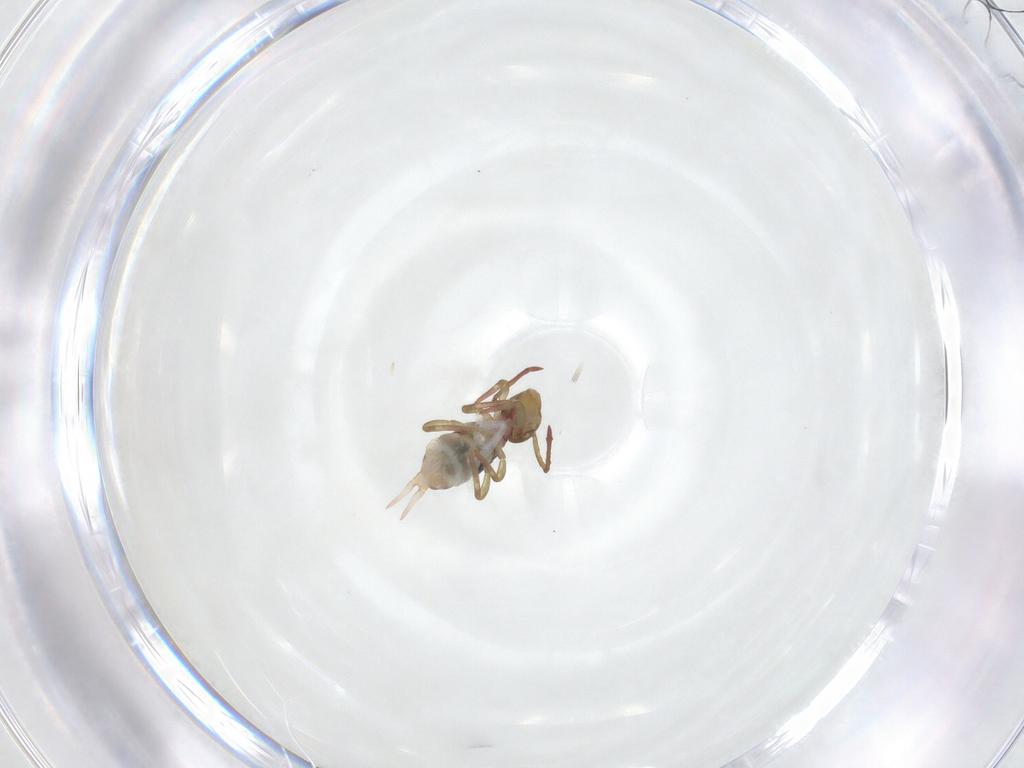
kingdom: Animalia
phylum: Arthropoda
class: Collembola
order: Symphypleona
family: Dicyrtomidae
